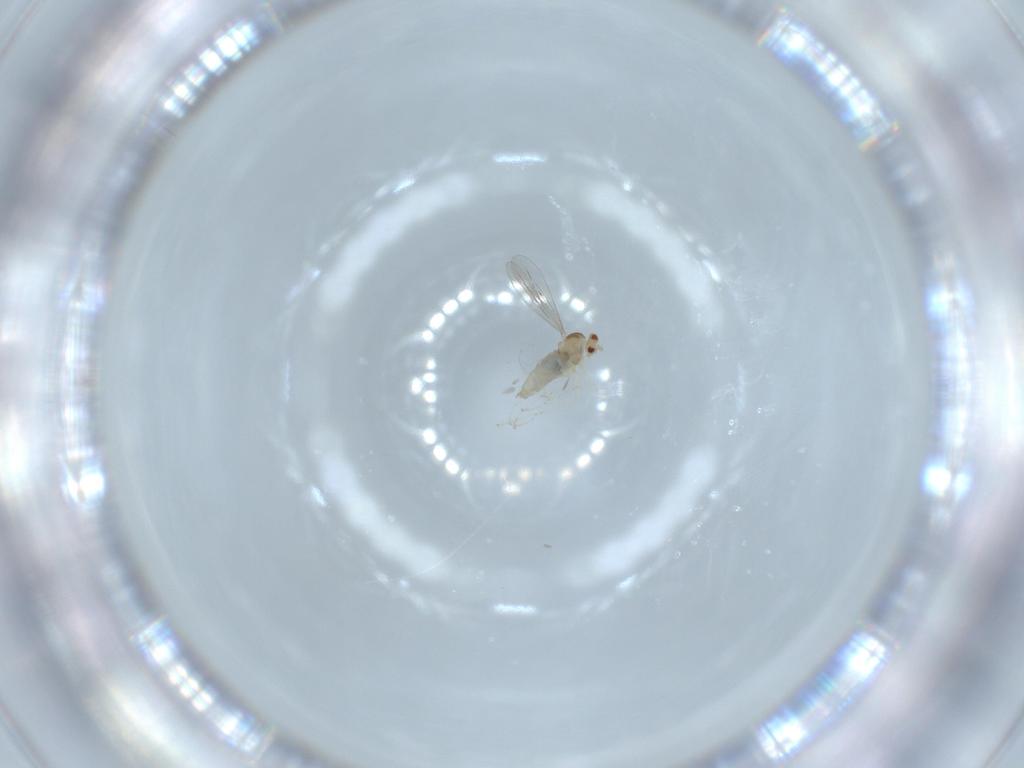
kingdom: Animalia
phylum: Arthropoda
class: Insecta
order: Diptera
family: Cecidomyiidae
